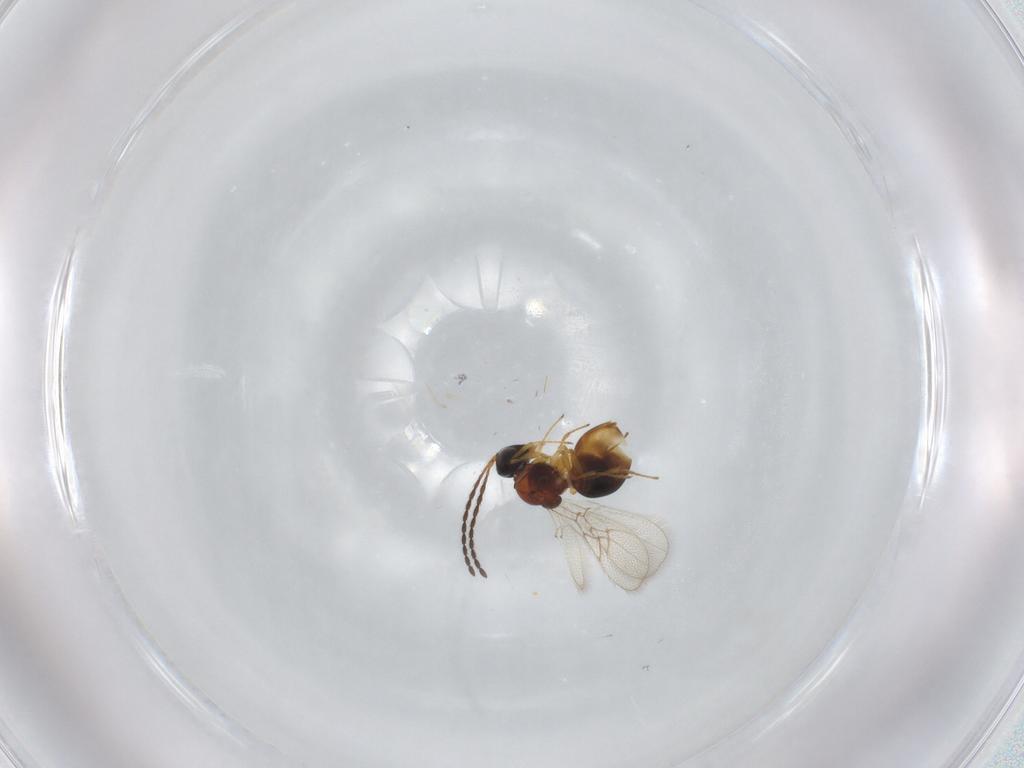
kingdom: Animalia
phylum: Arthropoda
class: Insecta
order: Hymenoptera
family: Figitidae
